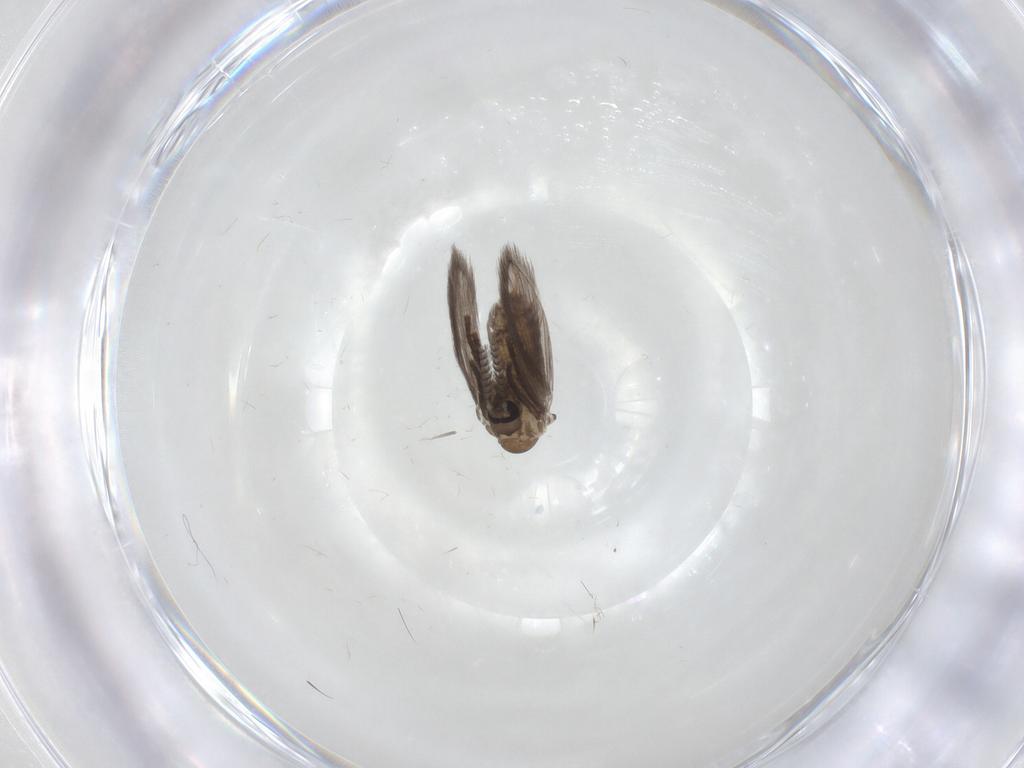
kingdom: Animalia
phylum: Arthropoda
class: Insecta
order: Diptera
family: Psychodidae
